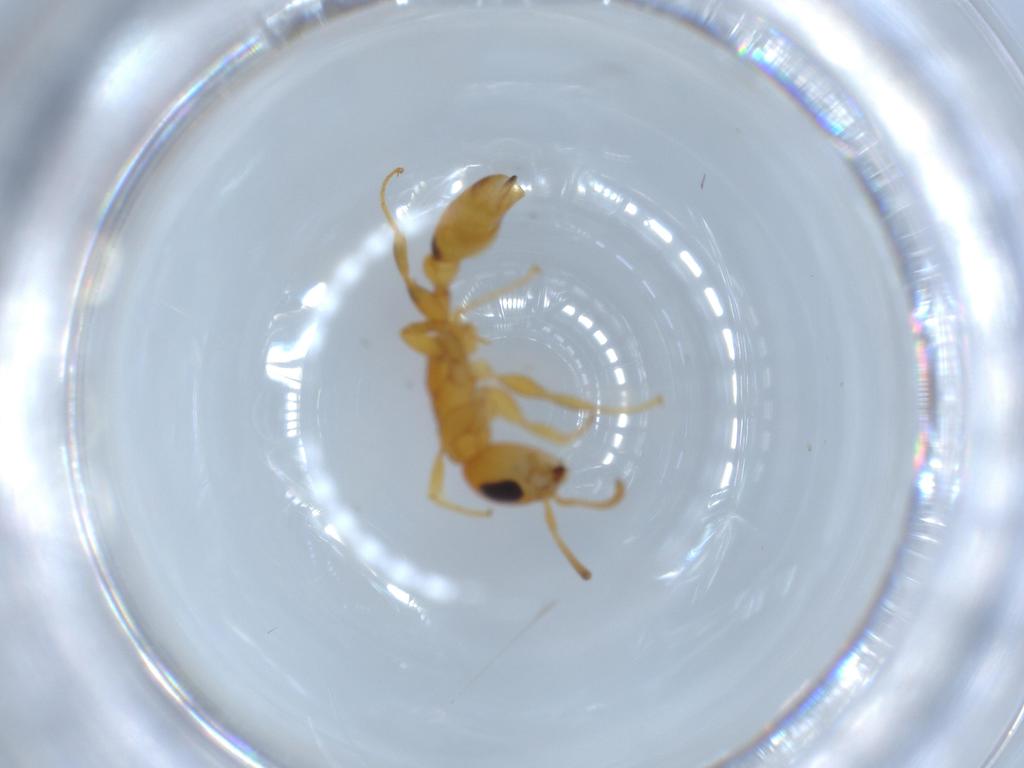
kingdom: Animalia
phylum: Arthropoda
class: Insecta
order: Hymenoptera
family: Formicidae
